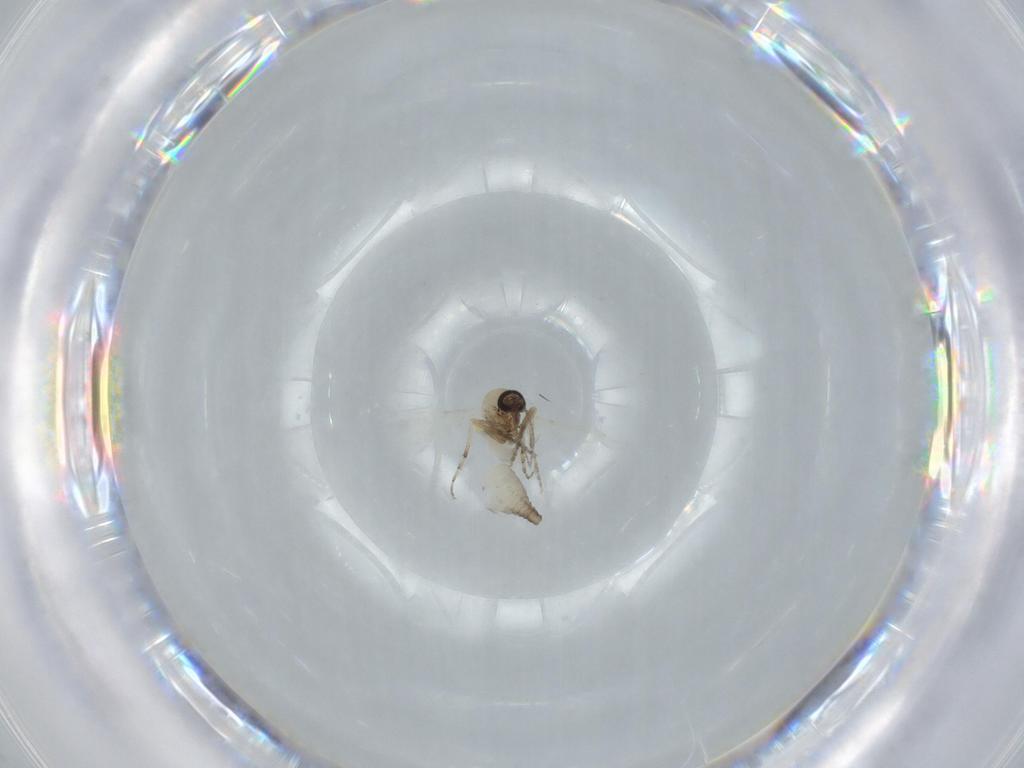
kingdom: Animalia
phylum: Arthropoda
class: Insecta
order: Diptera
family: Ceratopogonidae
